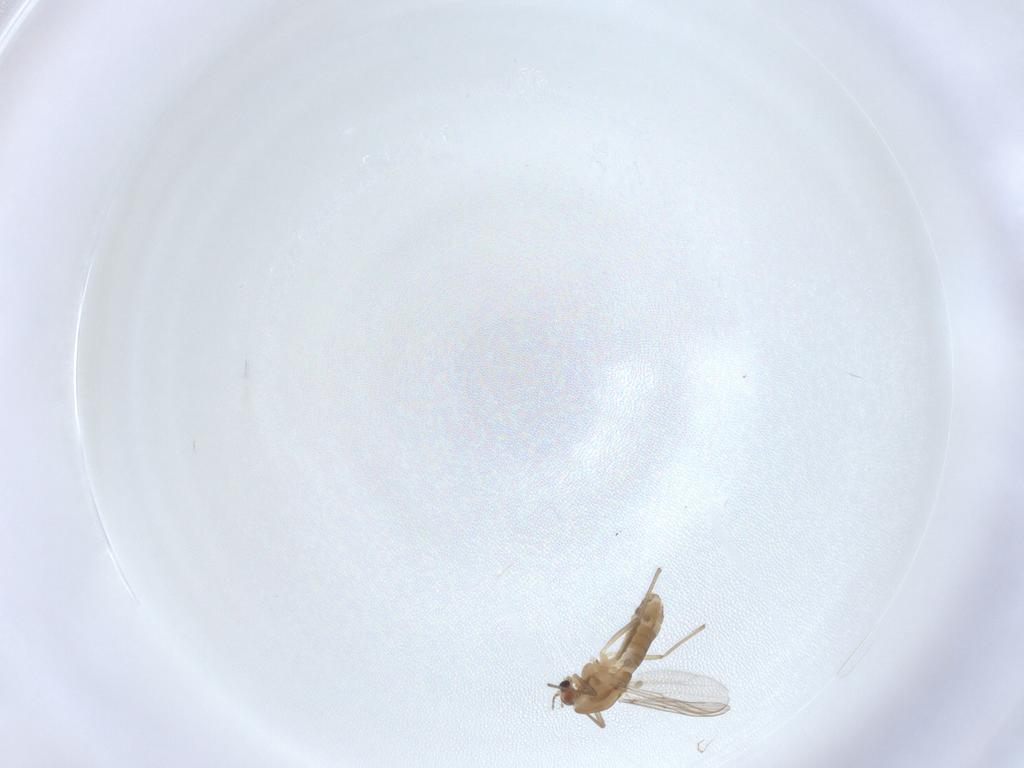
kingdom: Animalia
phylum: Arthropoda
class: Insecta
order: Diptera
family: Chironomidae
